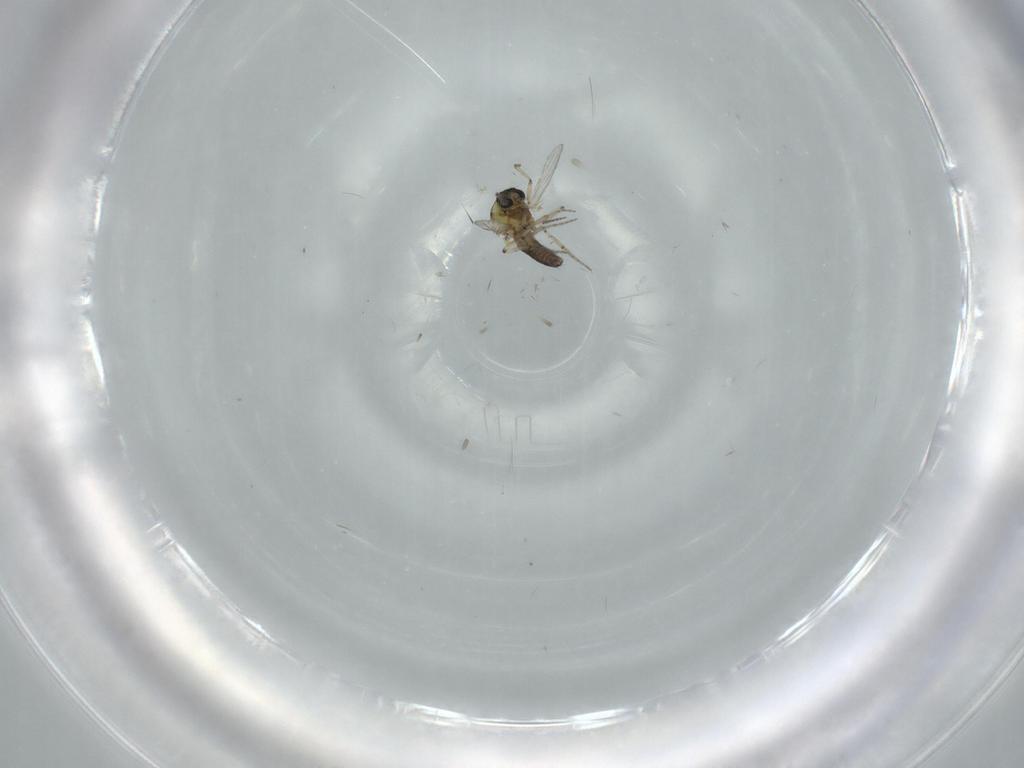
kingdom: Animalia
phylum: Arthropoda
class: Insecta
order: Diptera
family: Ceratopogonidae
